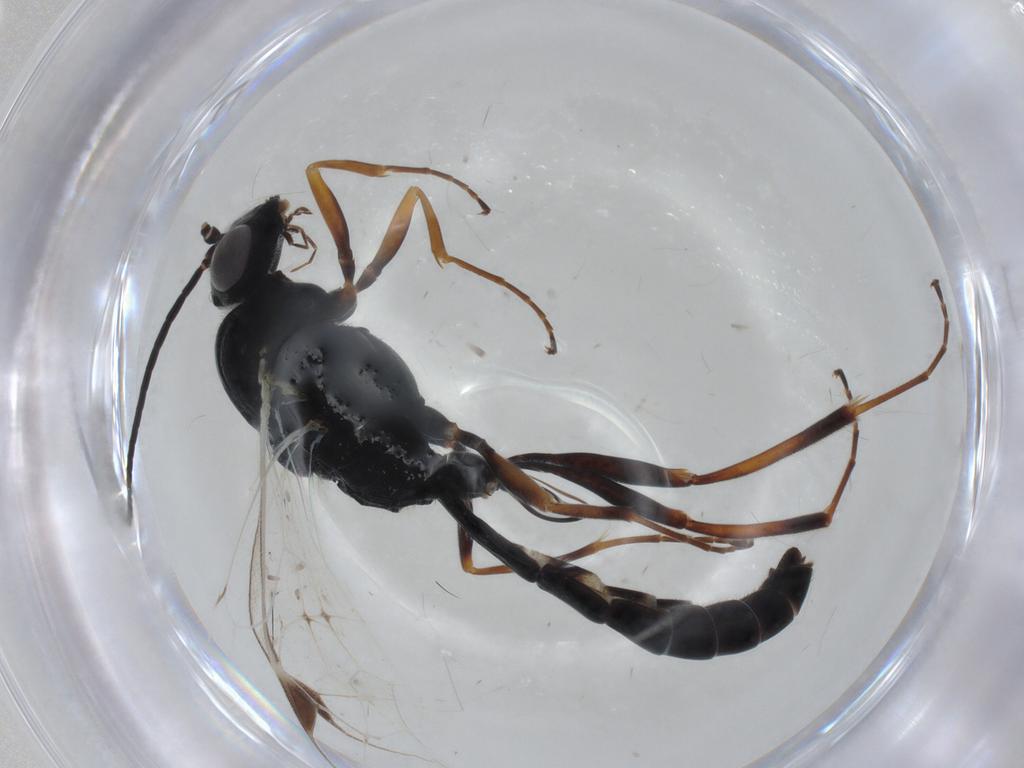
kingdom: Animalia
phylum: Arthropoda
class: Insecta
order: Hymenoptera
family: Ichneumonidae
